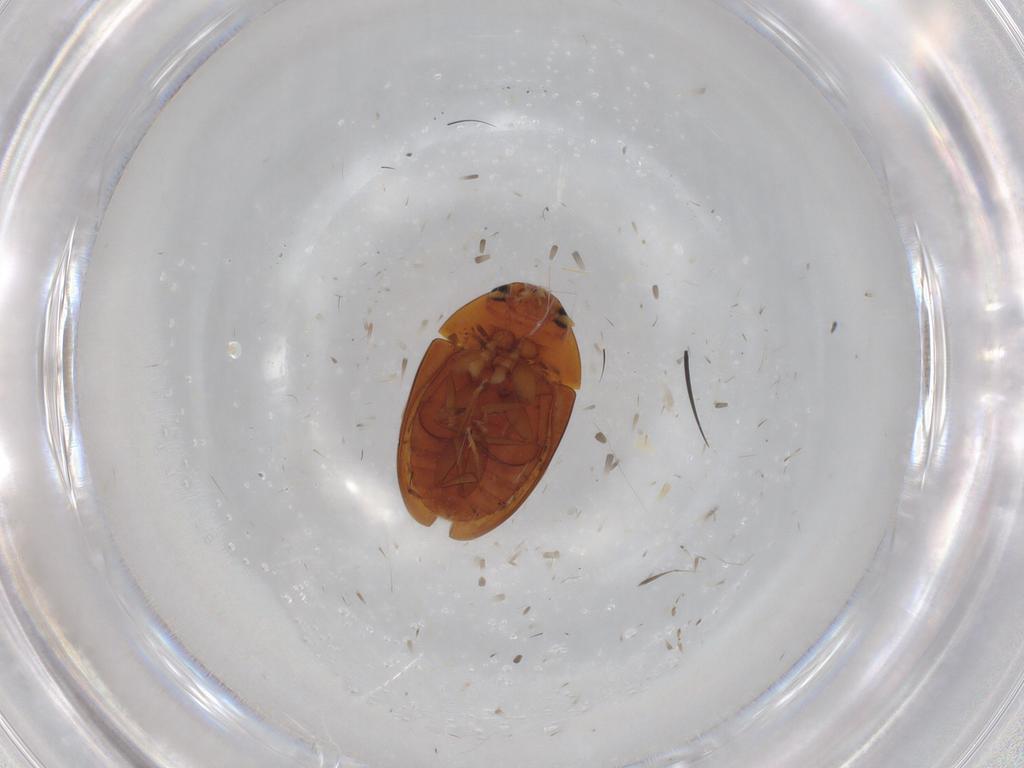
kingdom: Animalia
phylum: Arthropoda
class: Insecta
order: Coleoptera
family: Phalacridae
